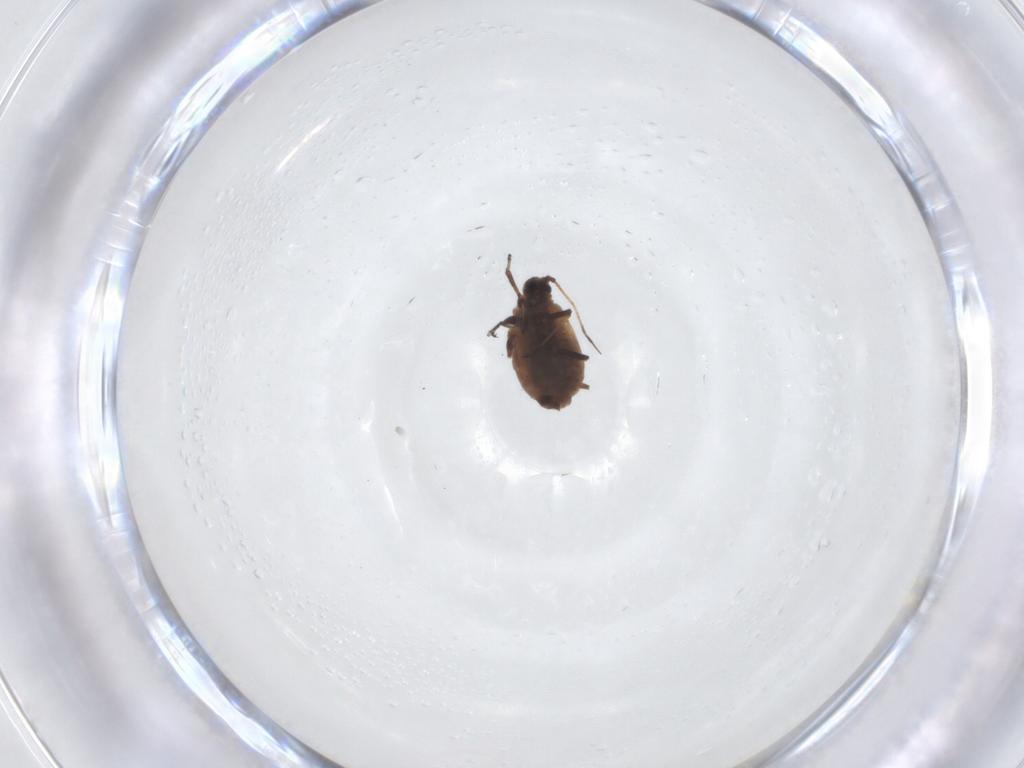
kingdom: Animalia
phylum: Arthropoda
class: Insecta
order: Hemiptera
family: Aphididae
